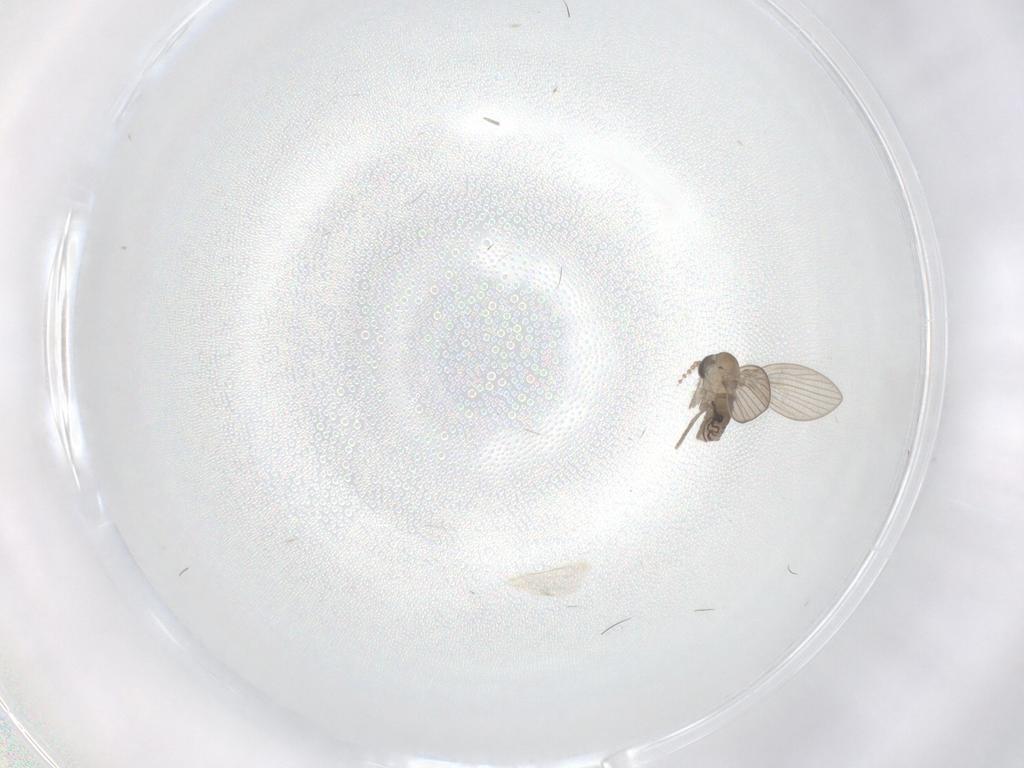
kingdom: Animalia
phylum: Arthropoda
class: Insecta
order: Diptera
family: Psychodidae
